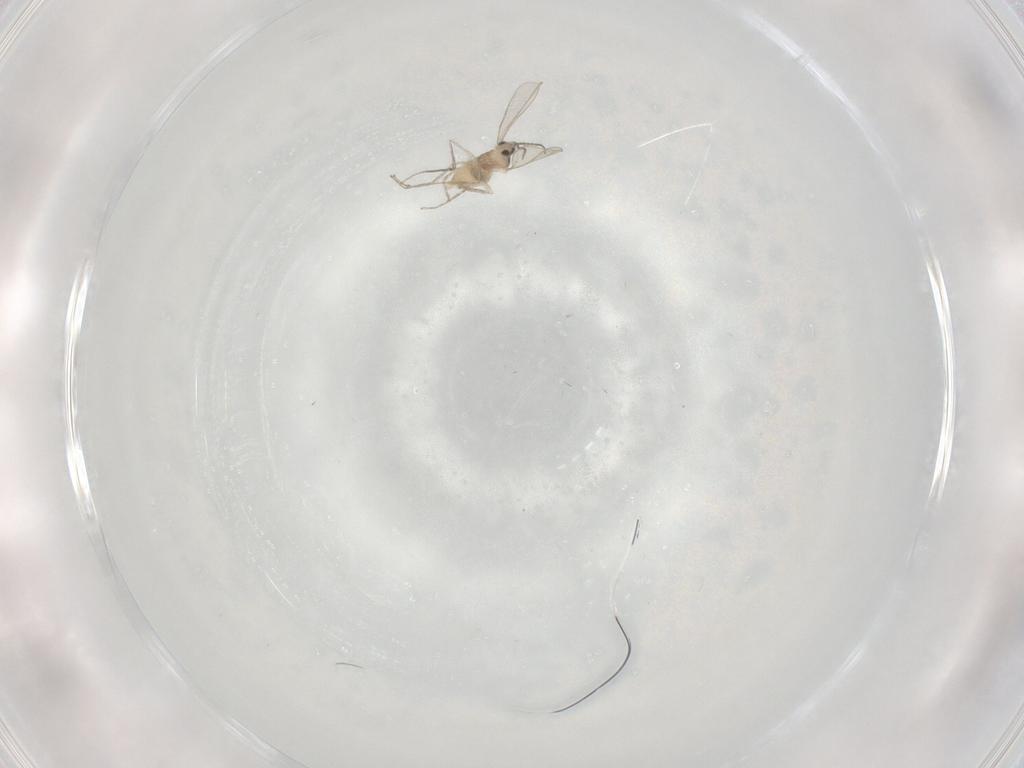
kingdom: Animalia
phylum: Arthropoda
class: Insecta
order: Diptera
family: Cecidomyiidae
